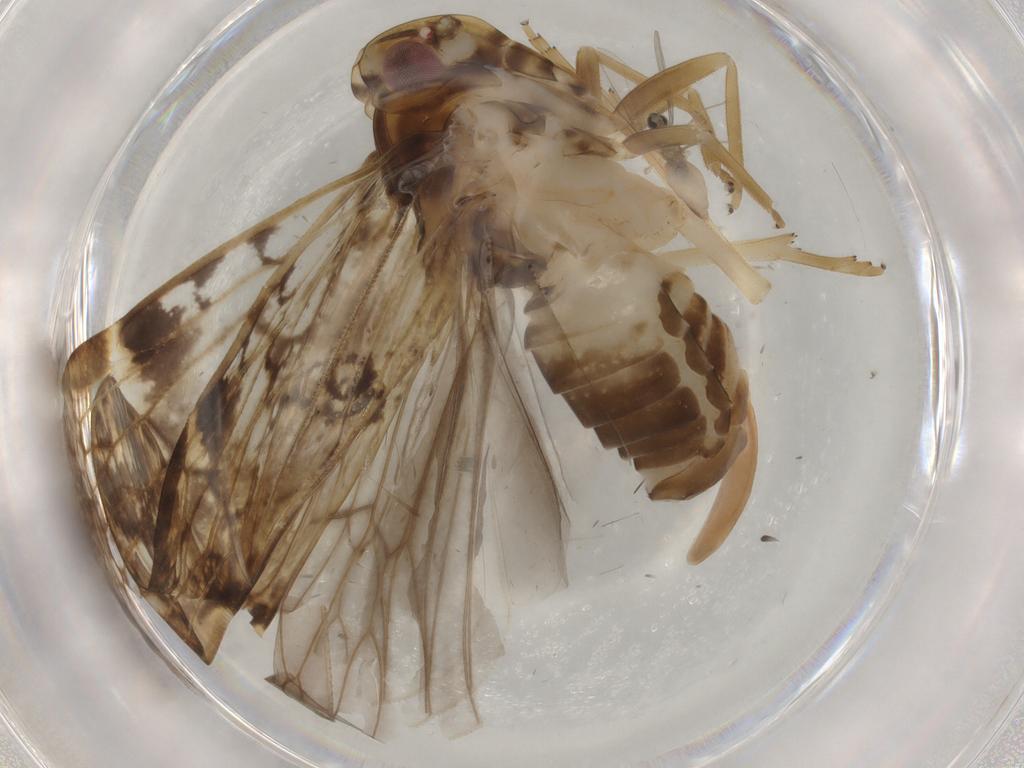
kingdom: Animalia
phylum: Arthropoda
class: Insecta
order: Hemiptera
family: Cixiidae
